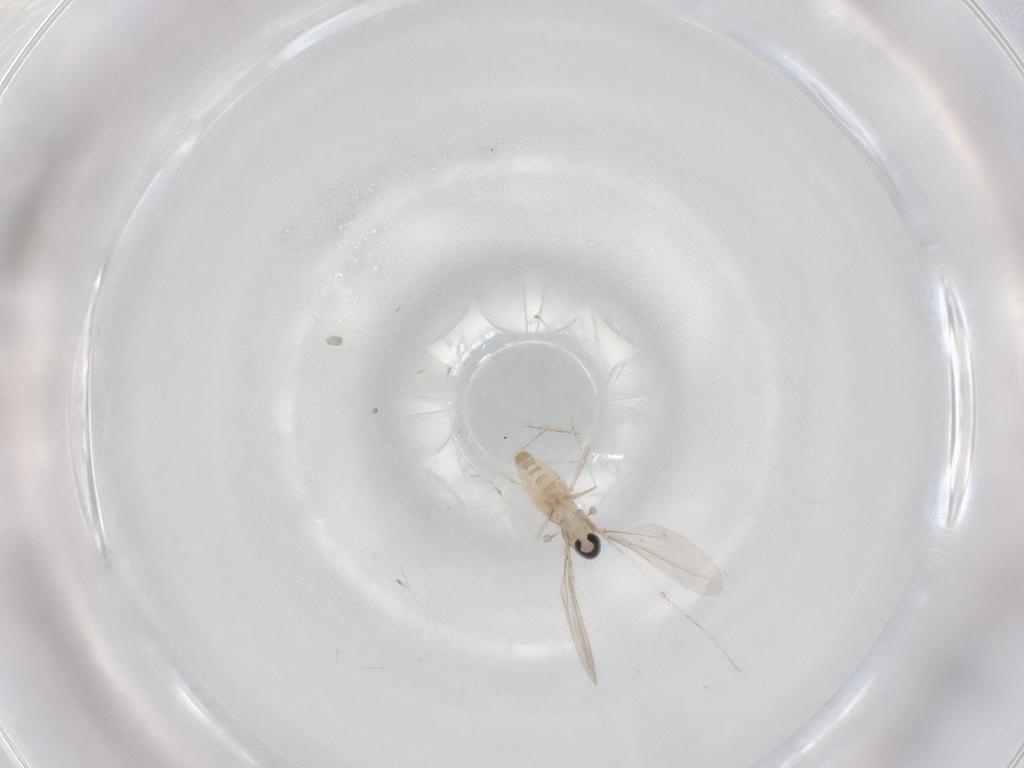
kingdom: Animalia
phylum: Arthropoda
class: Insecta
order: Diptera
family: Cecidomyiidae
